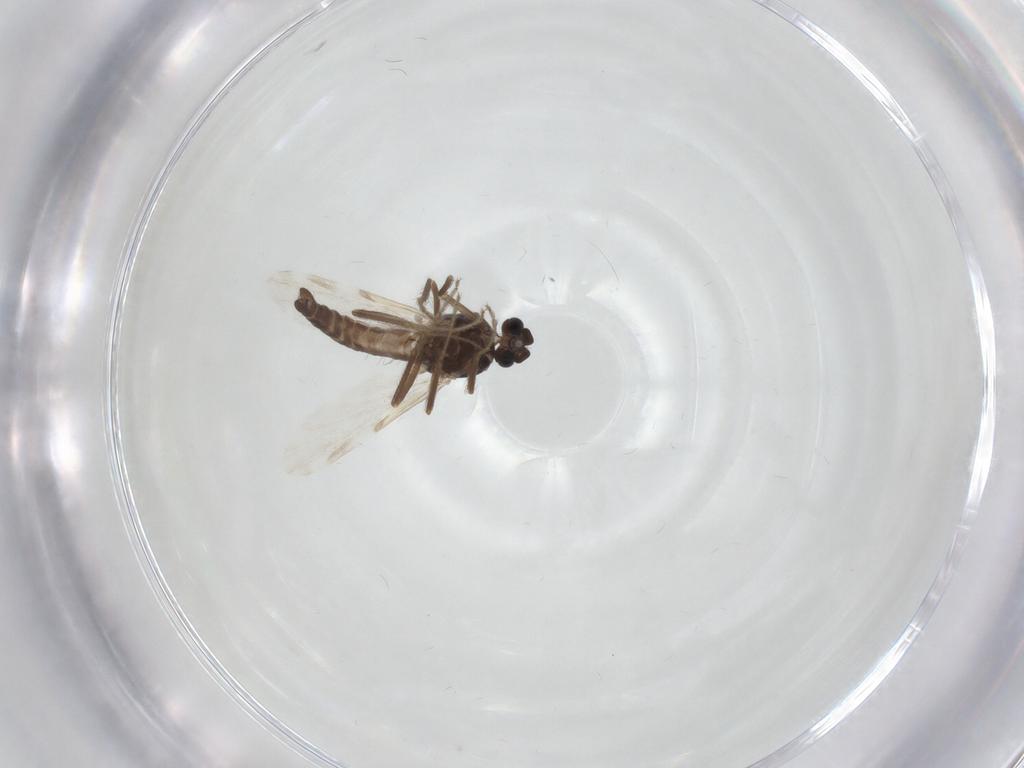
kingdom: Animalia
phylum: Arthropoda
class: Insecta
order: Diptera
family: Ceratopogonidae
